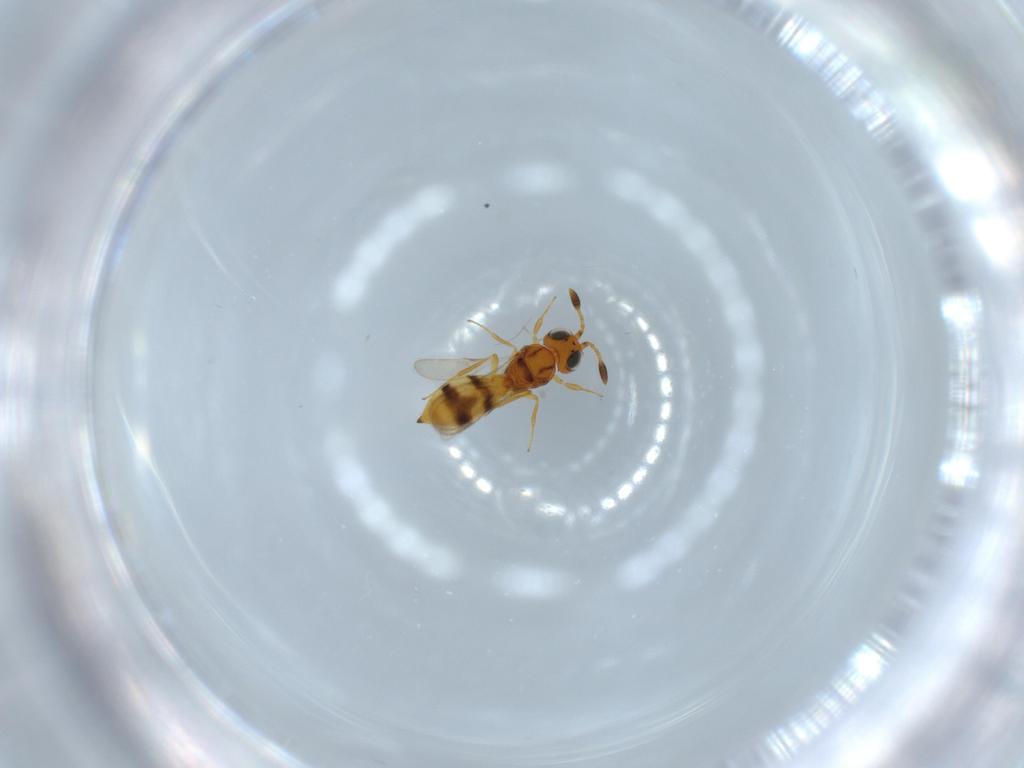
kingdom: Animalia
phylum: Arthropoda
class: Insecta
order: Hymenoptera
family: Scelionidae
